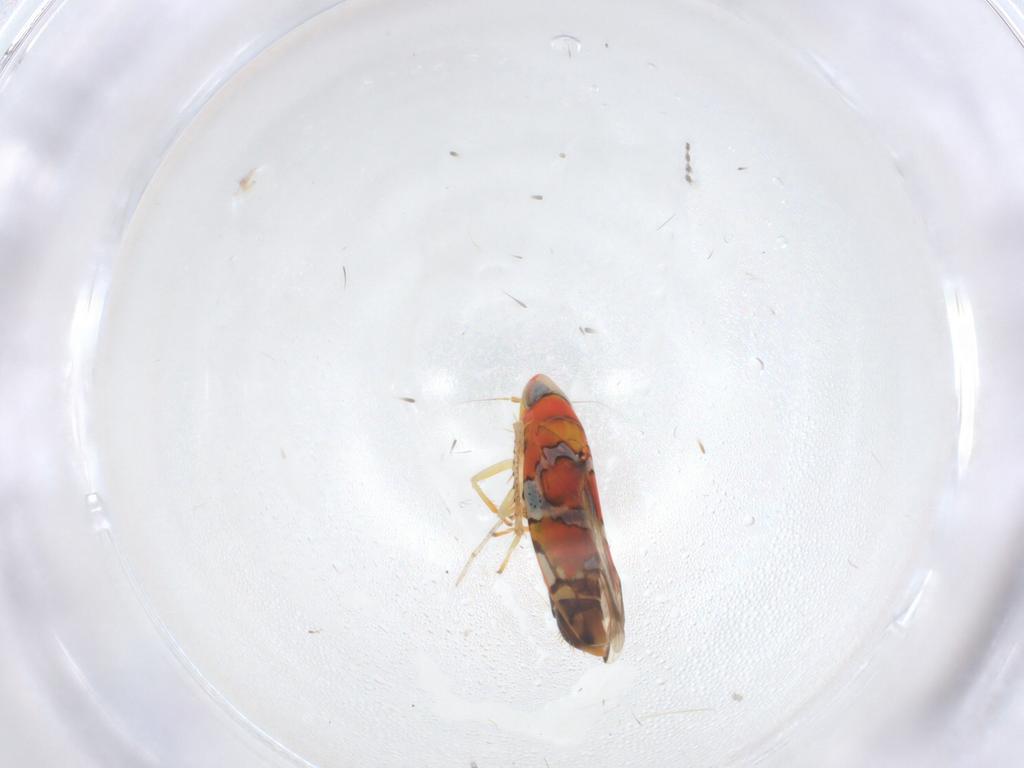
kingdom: Animalia
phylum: Arthropoda
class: Insecta
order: Hemiptera
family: Cicadellidae
